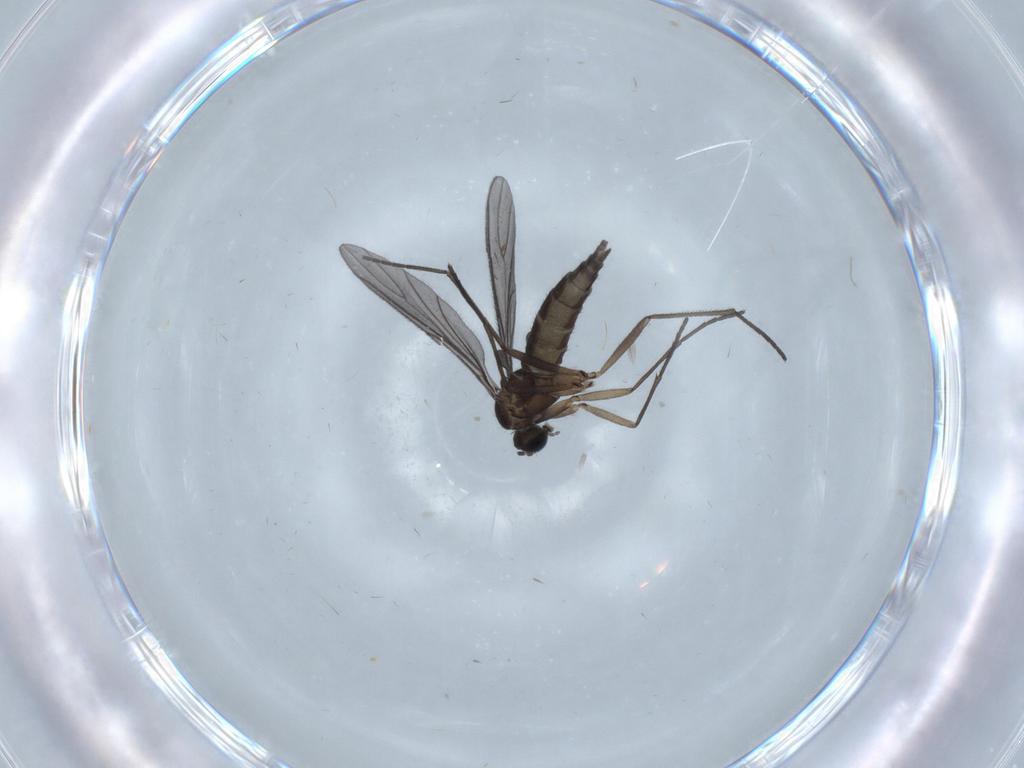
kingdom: Animalia
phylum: Arthropoda
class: Insecta
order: Diptera
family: Sciaridae
